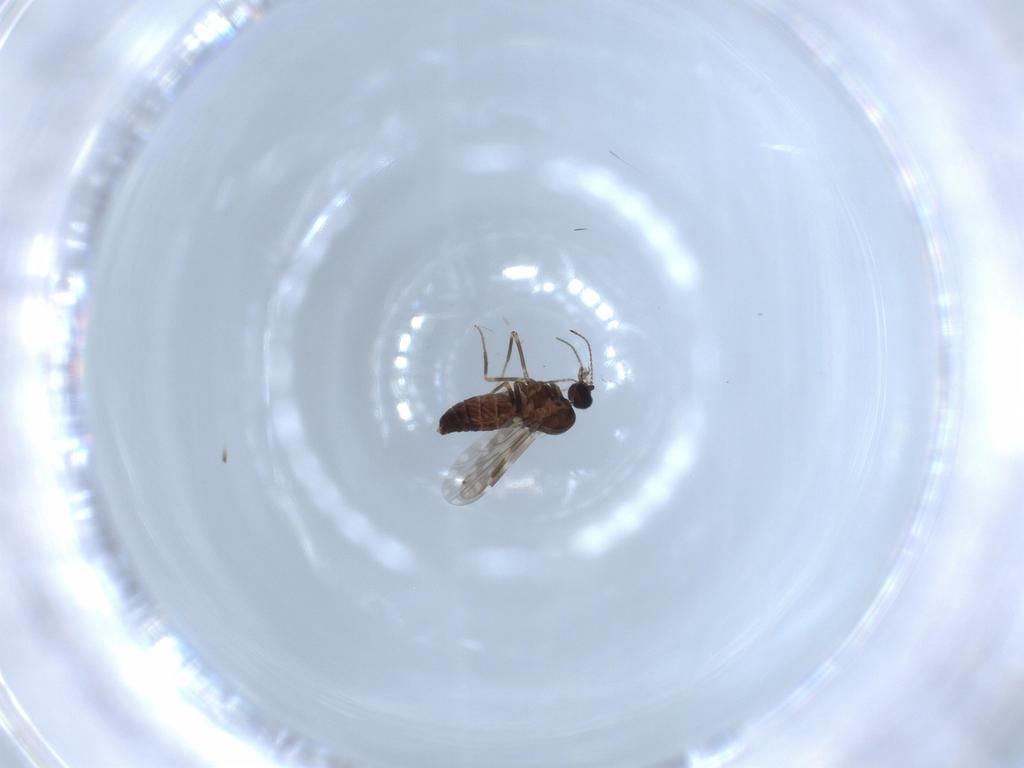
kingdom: Animalia
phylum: Arthropoda
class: Insecta
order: Diptera
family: Ceratopogonidae
